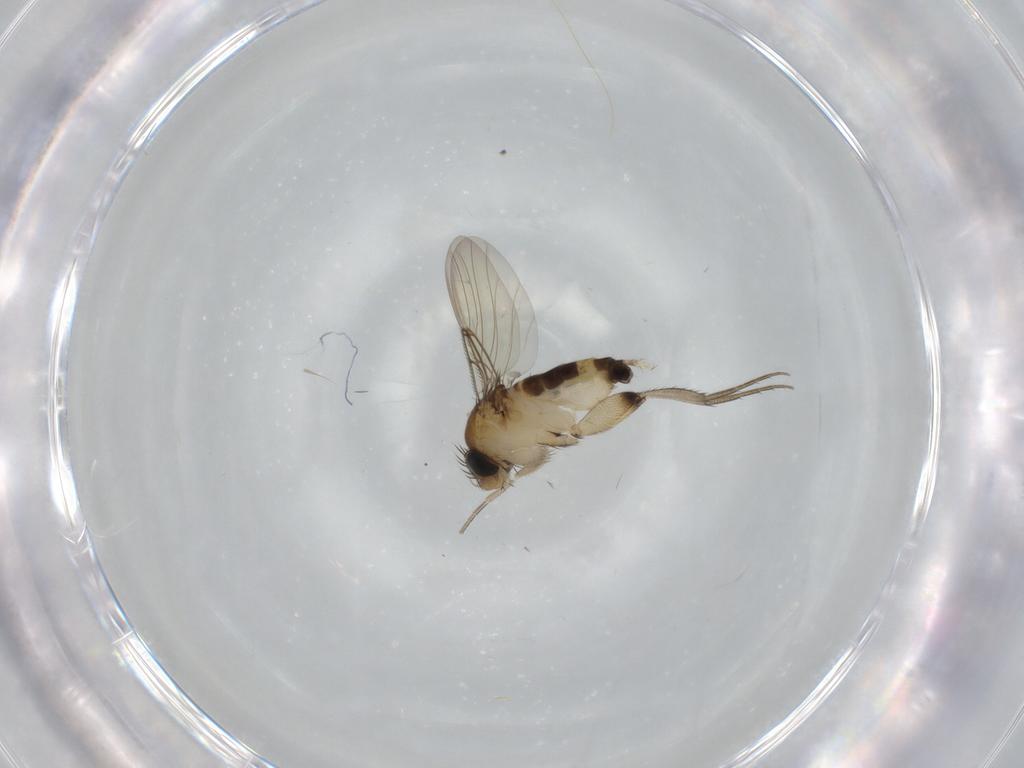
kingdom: Animalia
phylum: Arthropoda
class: Insecta
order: Diptera
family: Phoridae
